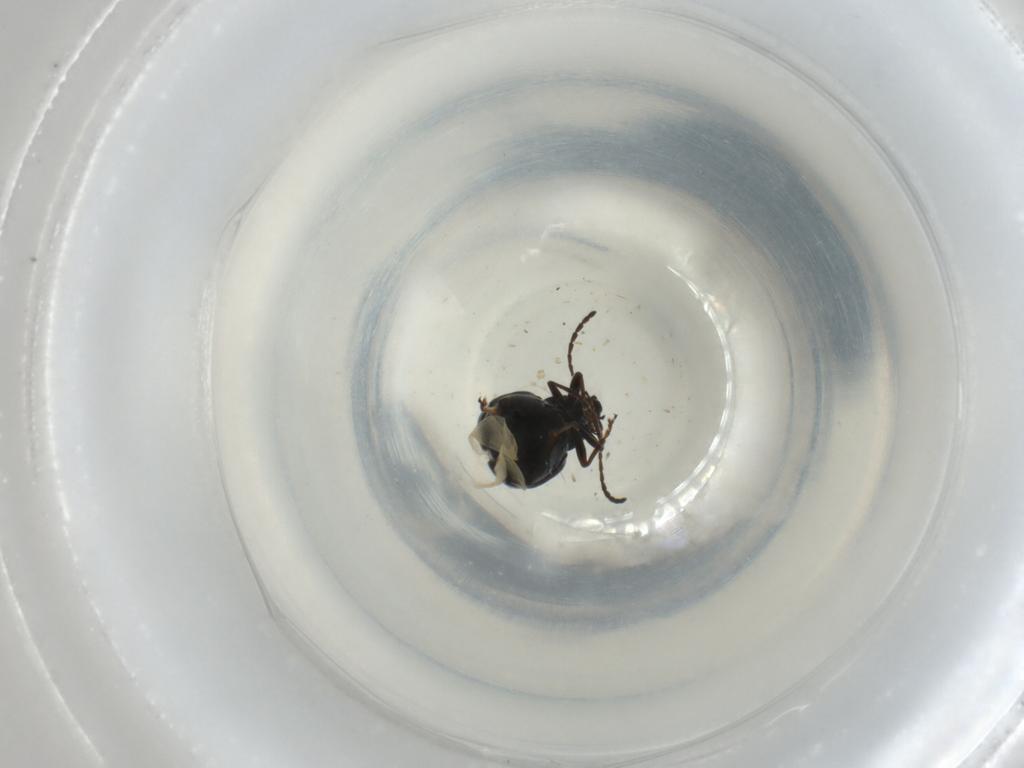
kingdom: Animalia
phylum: Arthropoda
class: Insecta
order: Coleoptera
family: Chrysomelidae
